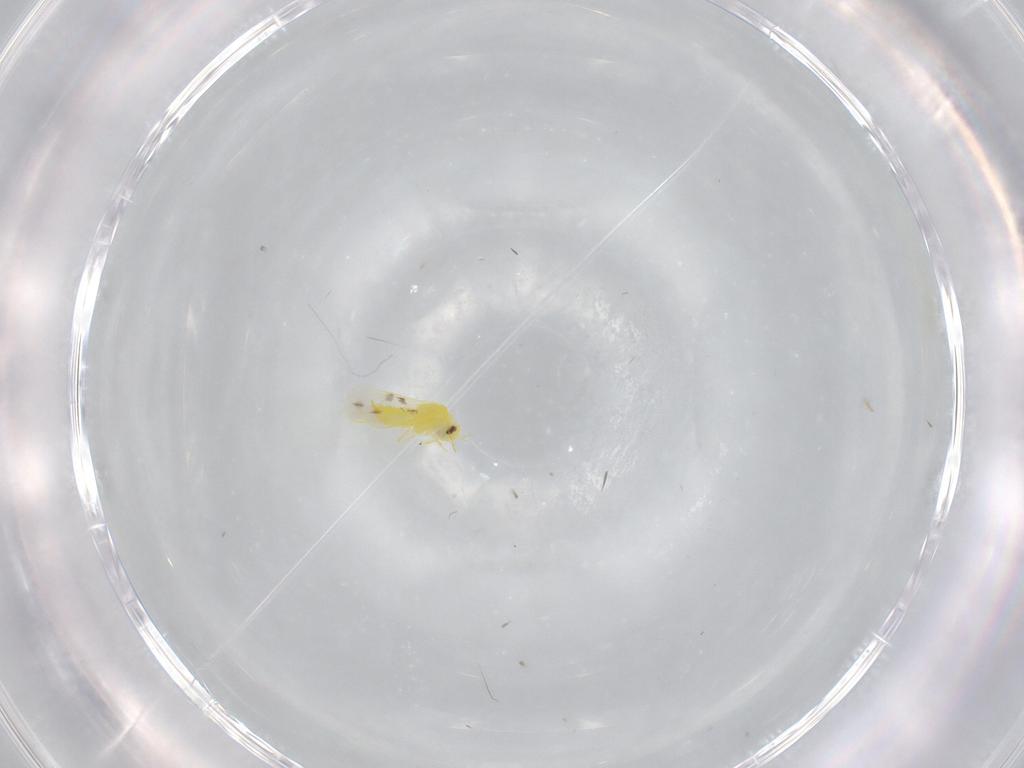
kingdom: Animalia
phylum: Arthropoda
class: Insecta
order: Hemiptera
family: Aleyrodidae
